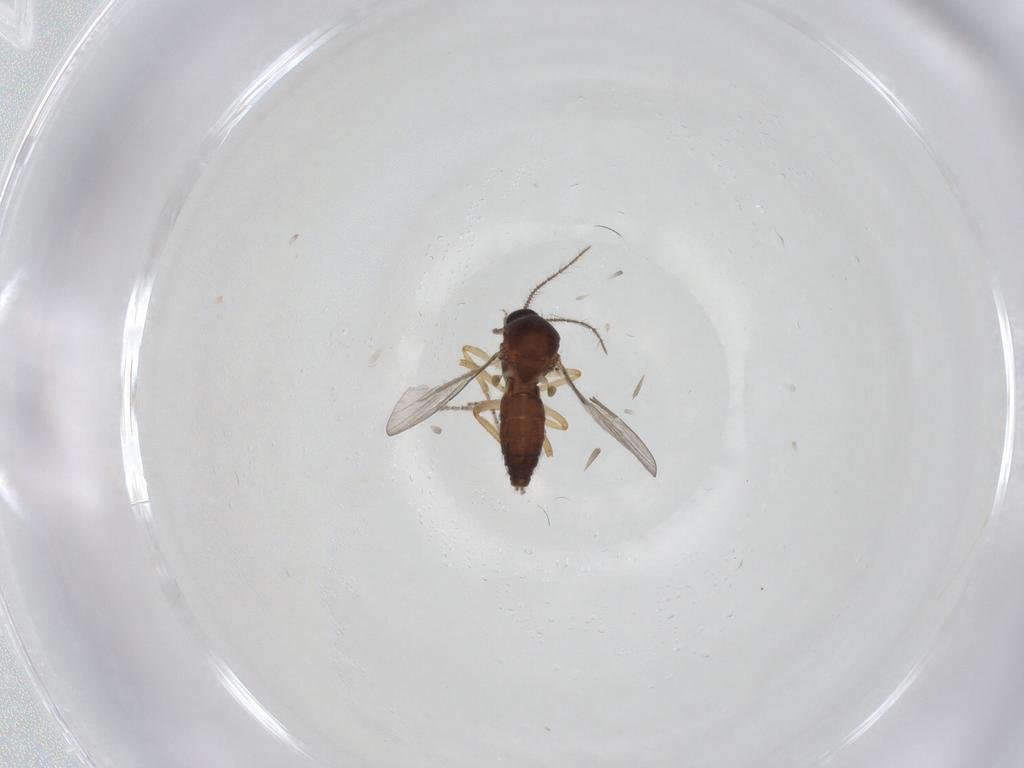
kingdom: Animalia
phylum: Arthropoda
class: Insecta
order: Diptera
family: Ceratopogonidae
